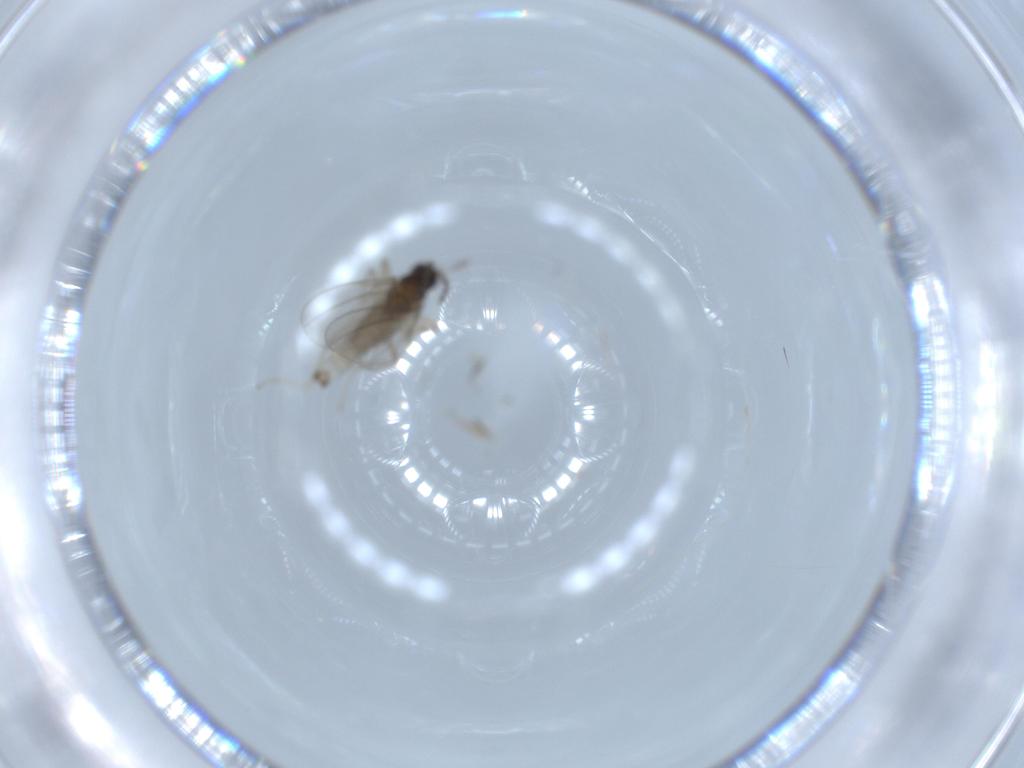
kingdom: Animalia
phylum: Arthropoda
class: Insecta
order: Diptera
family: Cecidomyiidae
